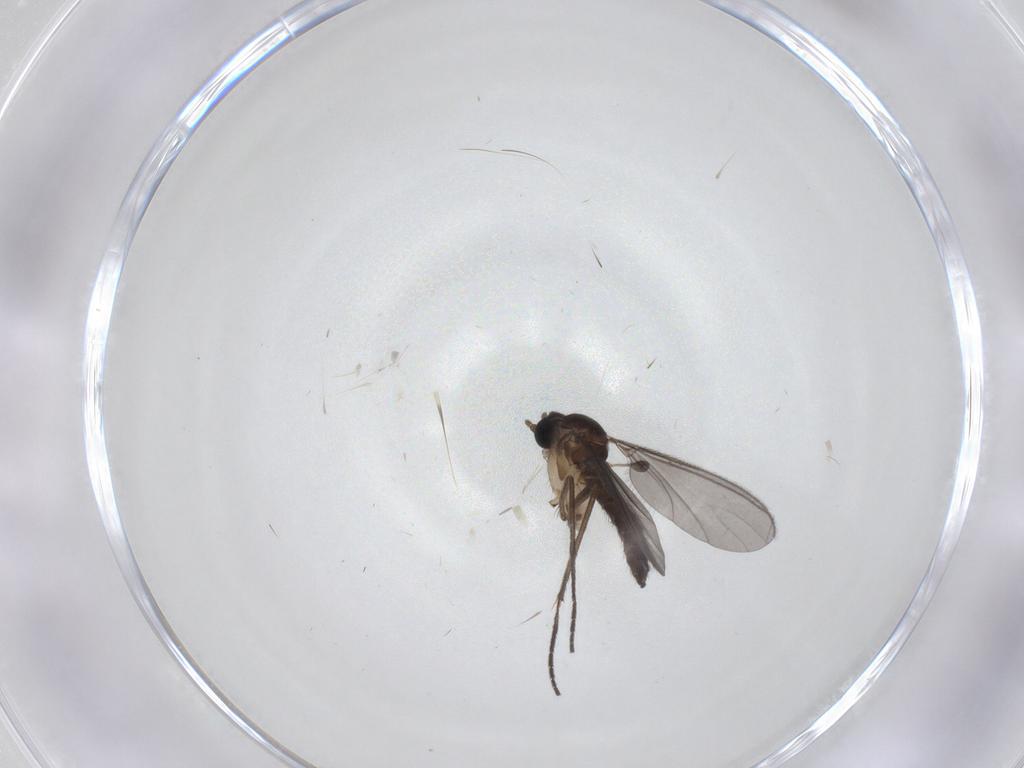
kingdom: Animalia
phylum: Arthropoda
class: Insecta
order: Diptera
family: Sciaridae
